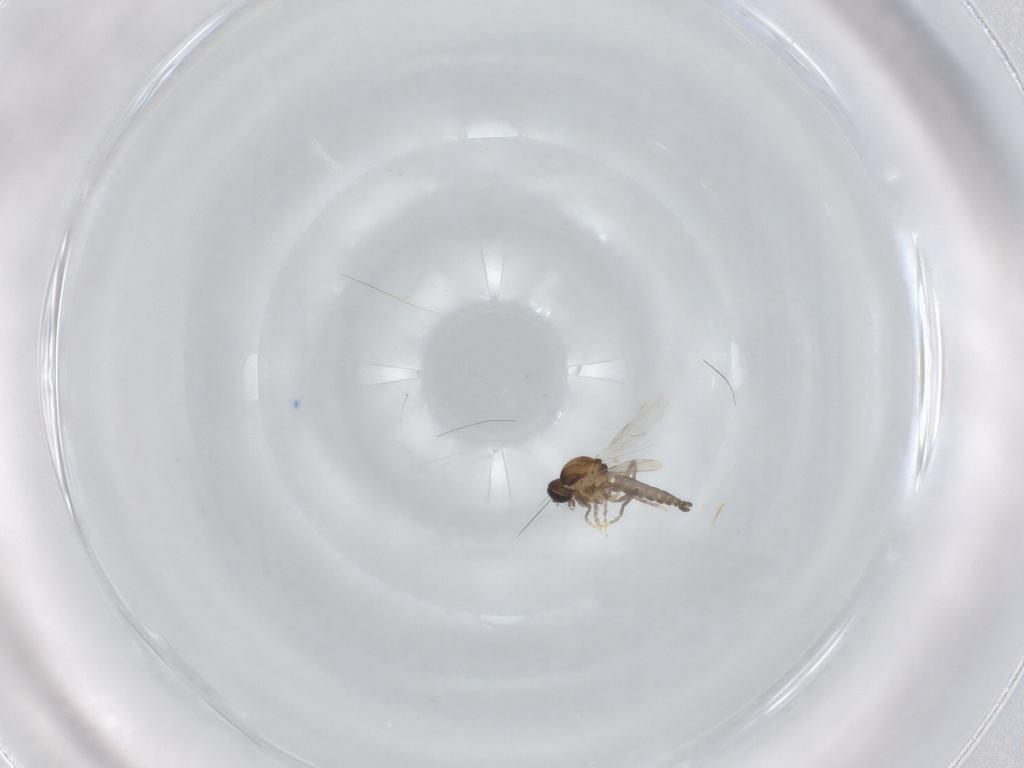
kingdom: Animalia
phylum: Arthropoda
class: Insecta
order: Diptera
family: Ceratopogonidae
